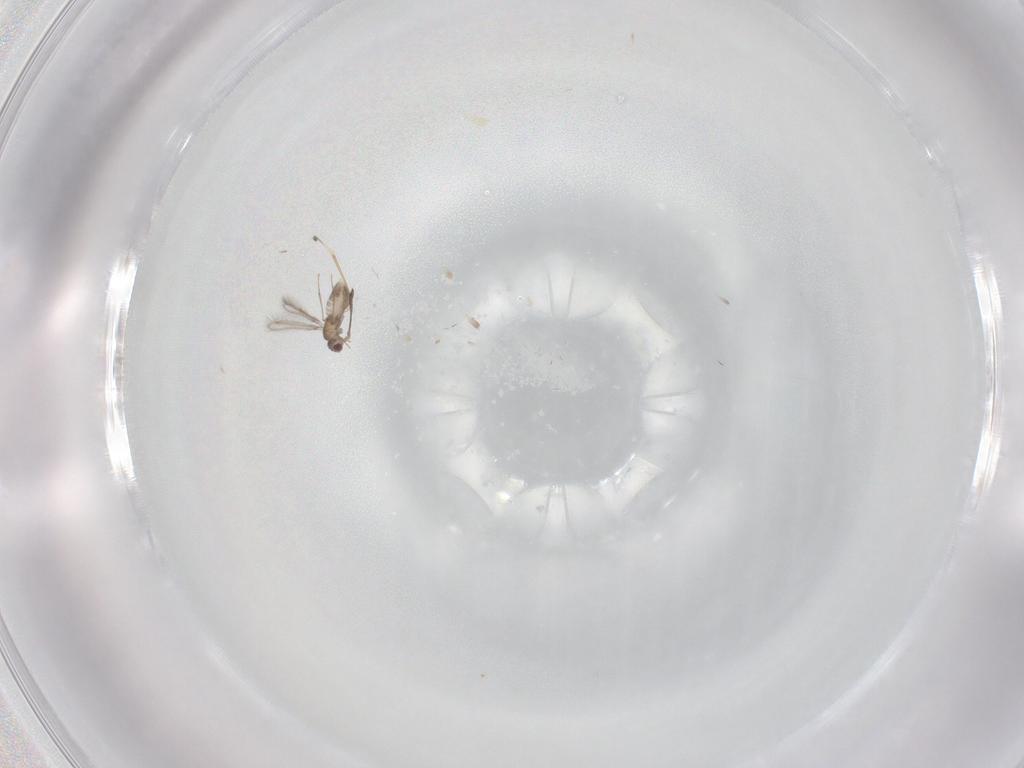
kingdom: Animalia
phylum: Arthropoda
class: Insecta
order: Hymenoptera
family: Mymaridae
